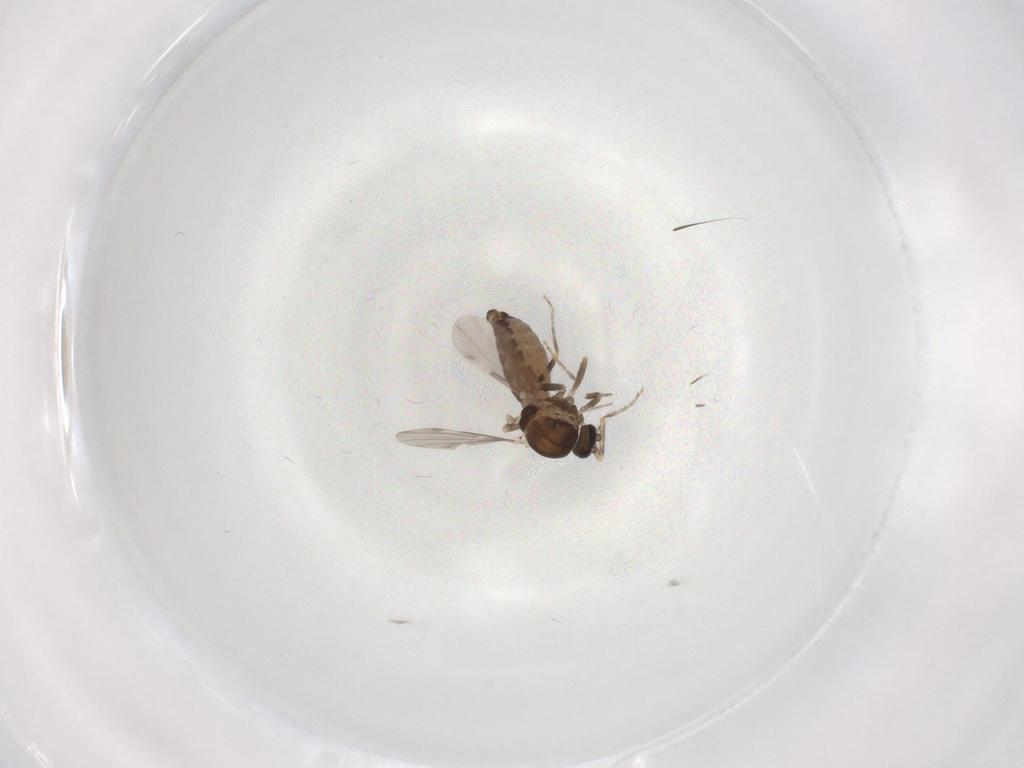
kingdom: Animalia
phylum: Arthropoda
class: Insecta
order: Diptera
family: Ceratopogonidae
